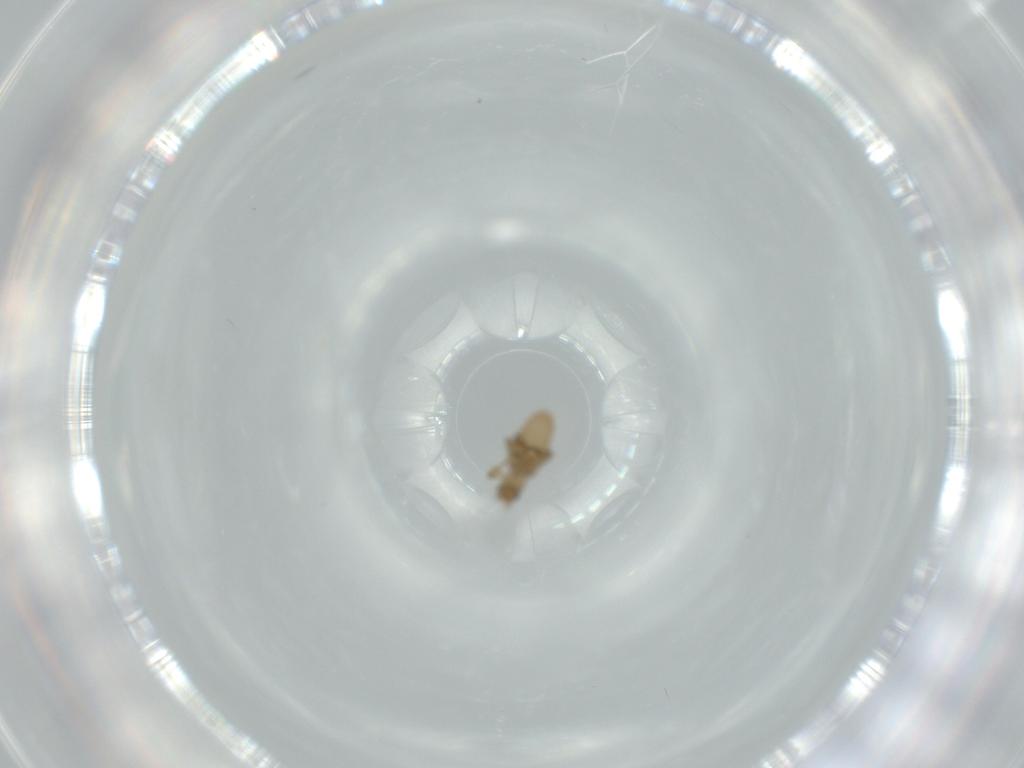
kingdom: Animalia
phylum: Arthropoda
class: Insecta
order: Diptera
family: Phoridae
